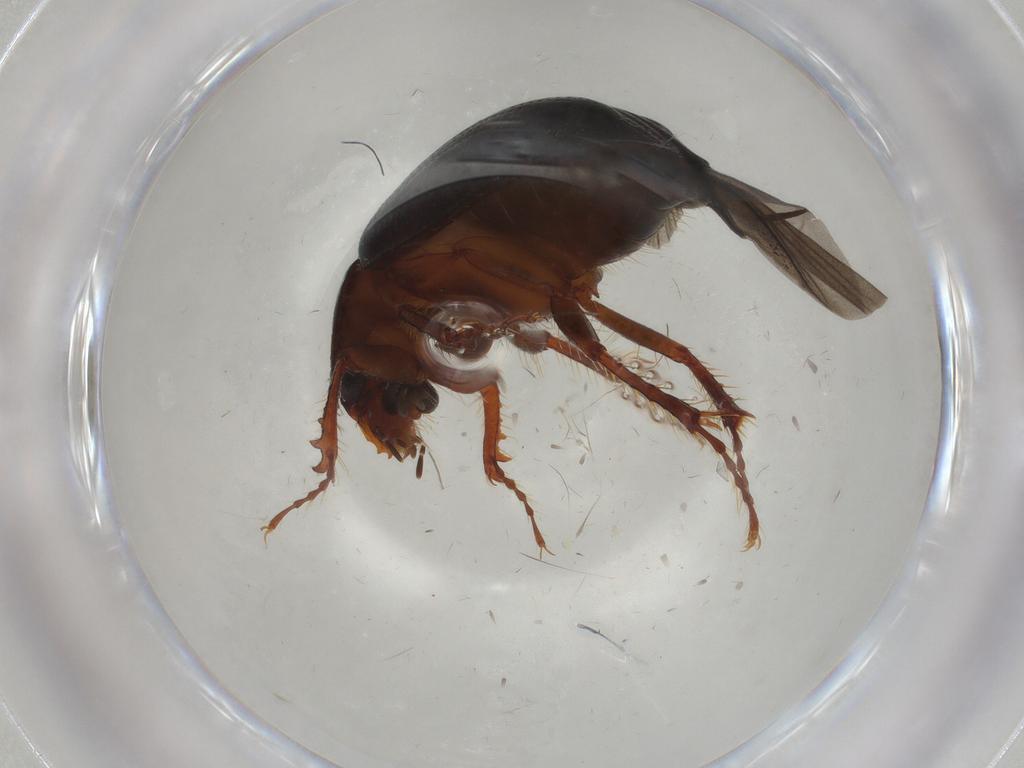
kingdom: Animalia
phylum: Arthropoda
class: Insecta
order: Coleoptera
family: Hybosoridae
